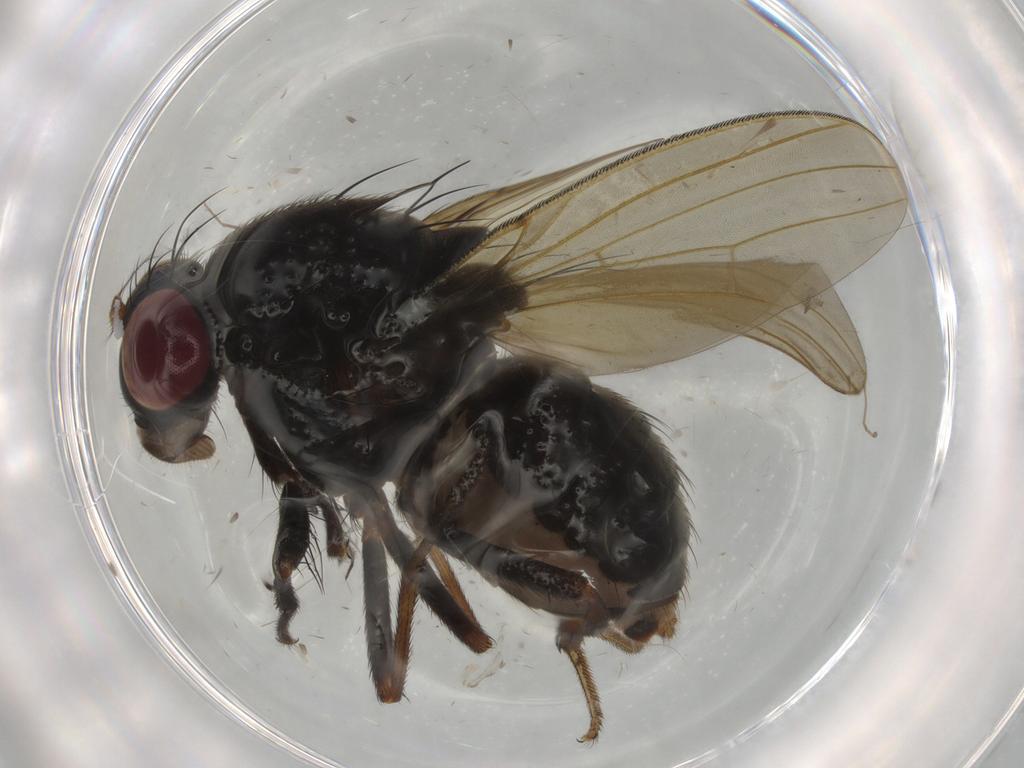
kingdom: Animalia
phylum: Arthropoda
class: Insecta
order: Diptera
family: Lauxaniidae
